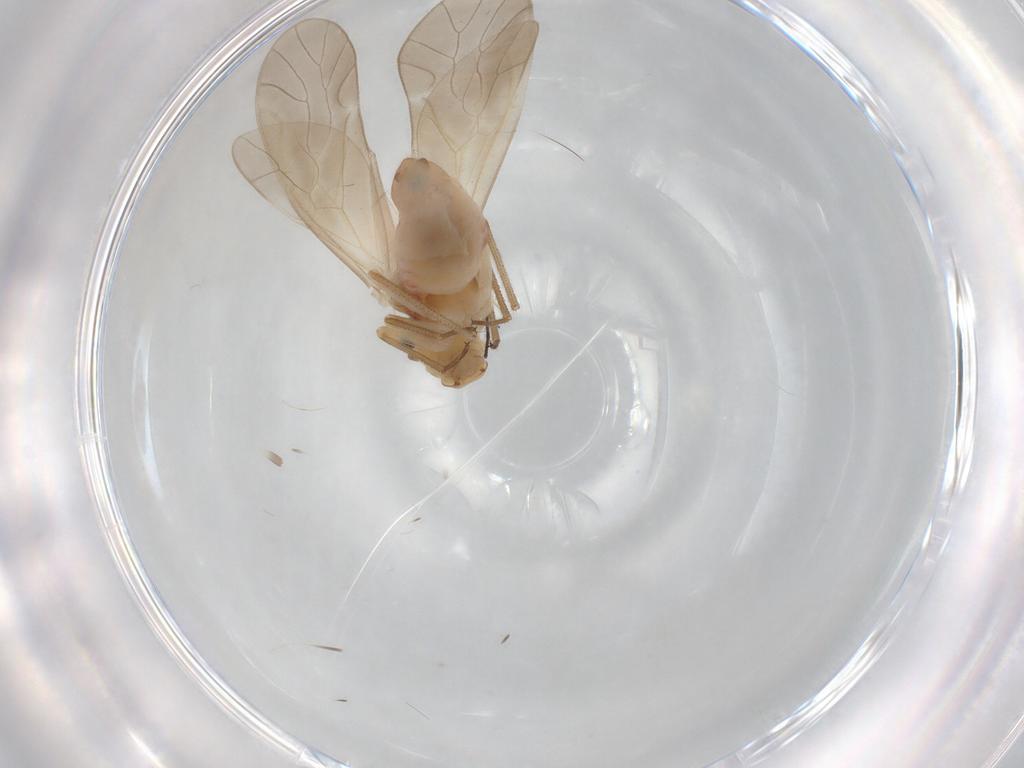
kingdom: Animalia
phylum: Arthropoda
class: Insecta
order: Psocodea
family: Caeciliusidae
